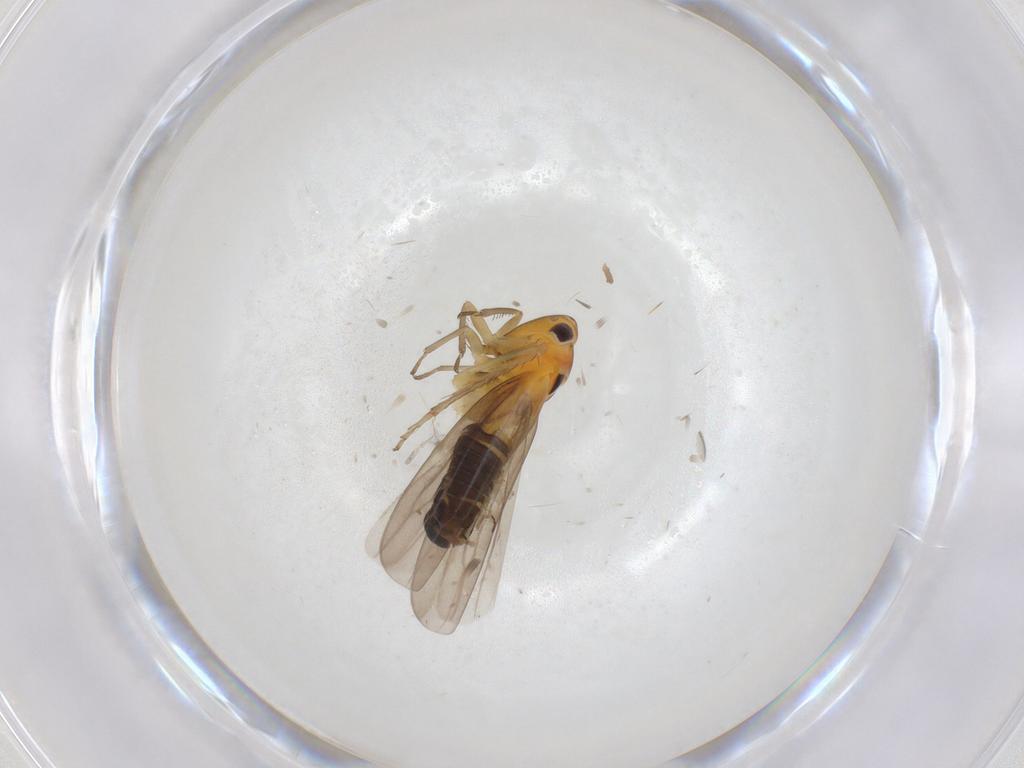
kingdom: Animalia
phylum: Arthropoda
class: Insecta
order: Hemiptera
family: Cicadellidae
